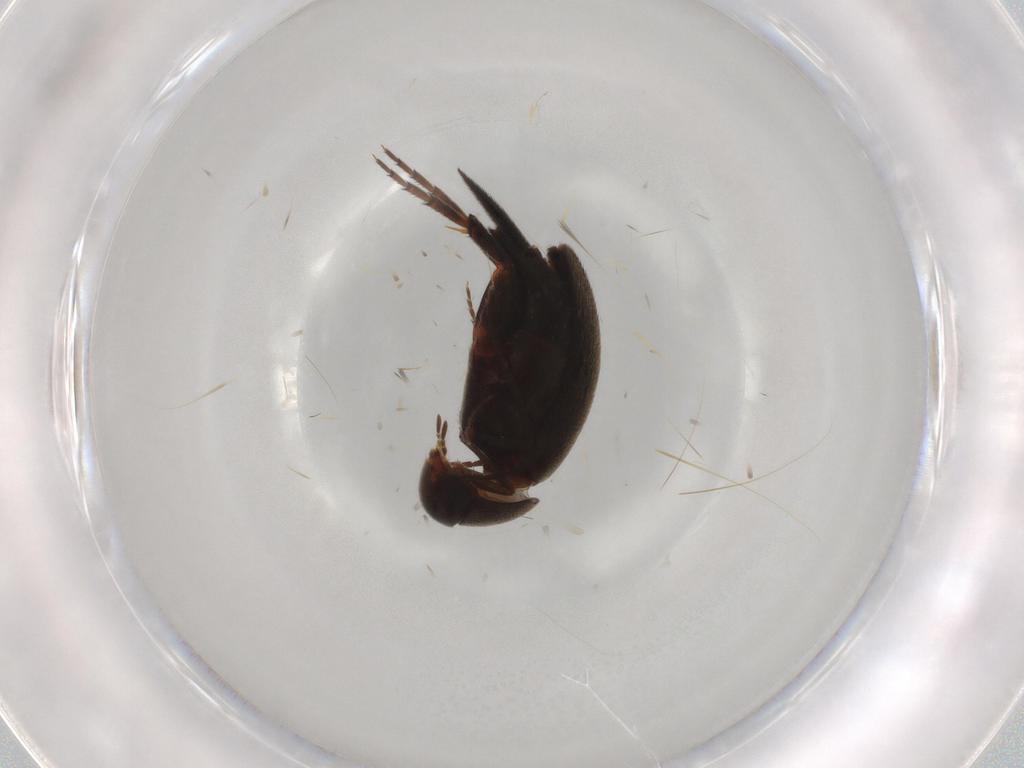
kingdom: Animalia
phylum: Arthropoda
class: Insecta
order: Coleoptera
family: Mordellidae
